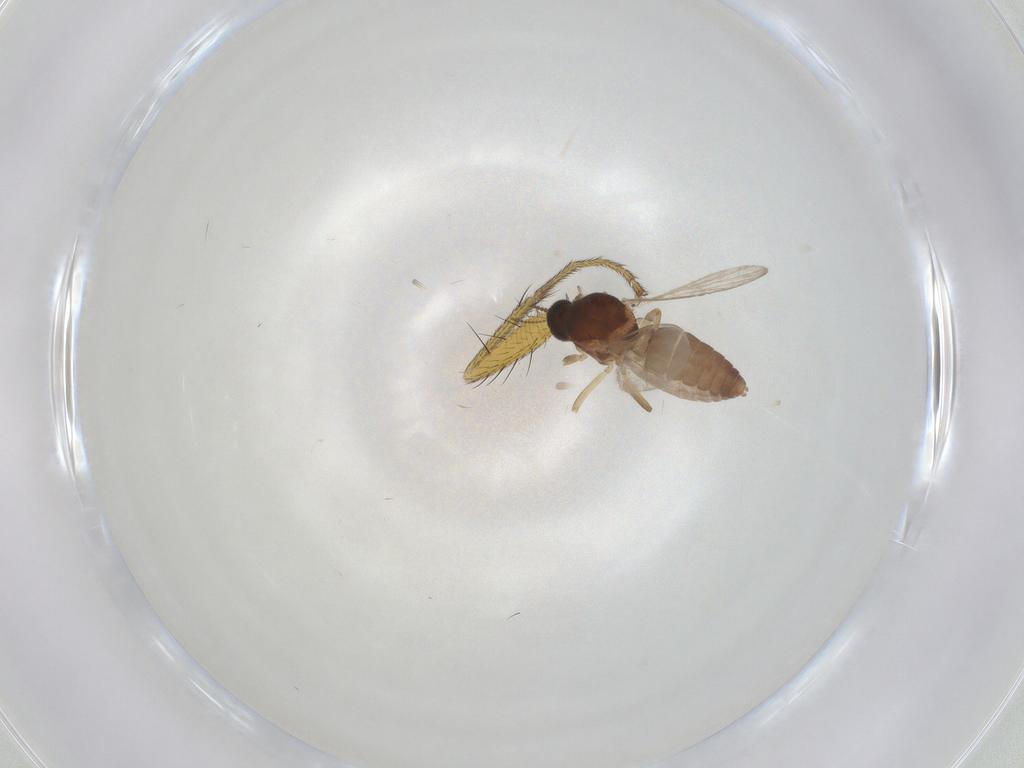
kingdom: Animalia
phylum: Arthropoda
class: Insecta
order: Diptera
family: Ceratopogonidae
